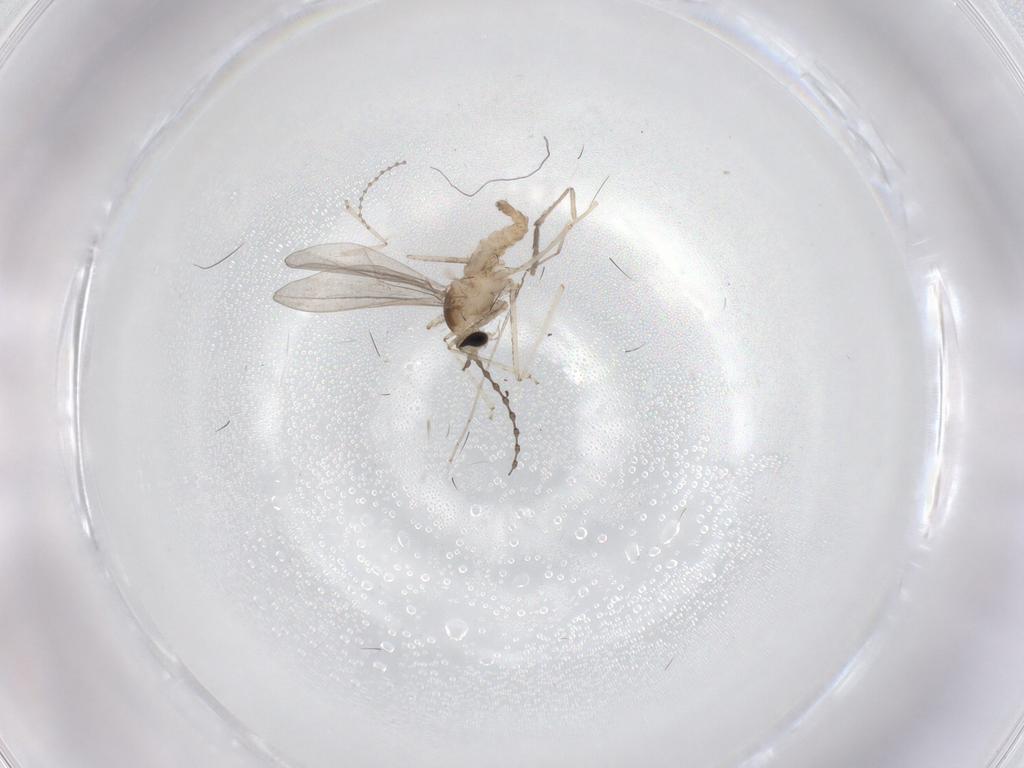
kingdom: Animalia
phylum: Arthropoda
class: Insecta
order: Diptera
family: Cecidomyiidae
